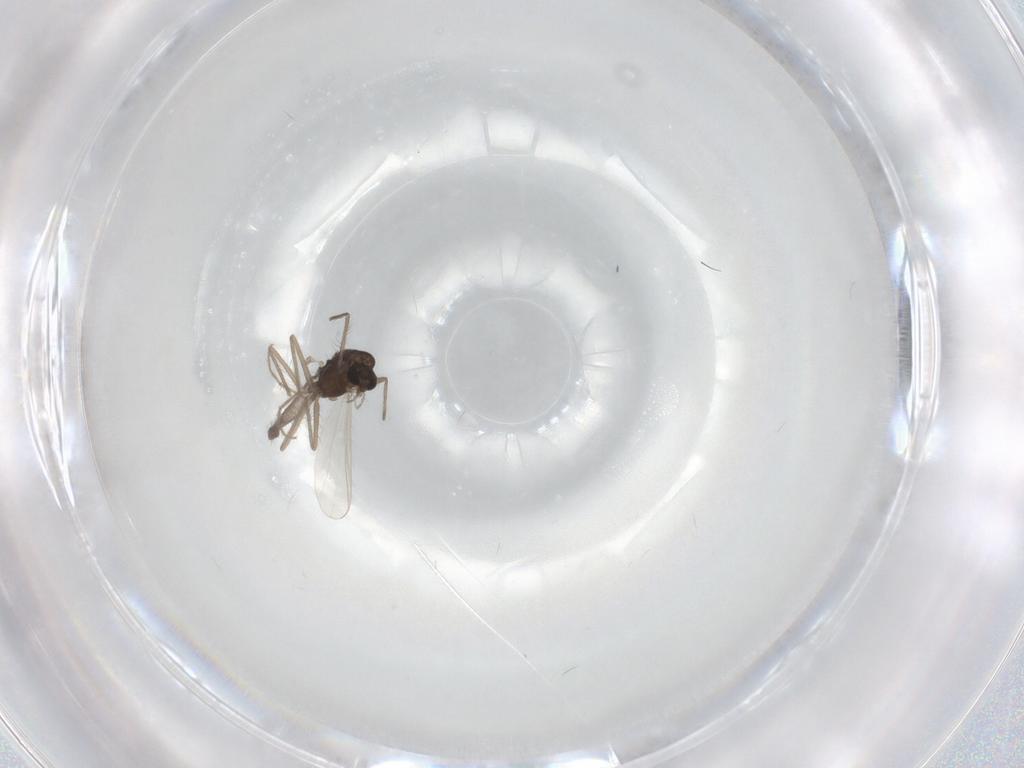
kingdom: Animalia
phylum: Arthropoda
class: Insecta
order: Diptera
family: Chironomidae
